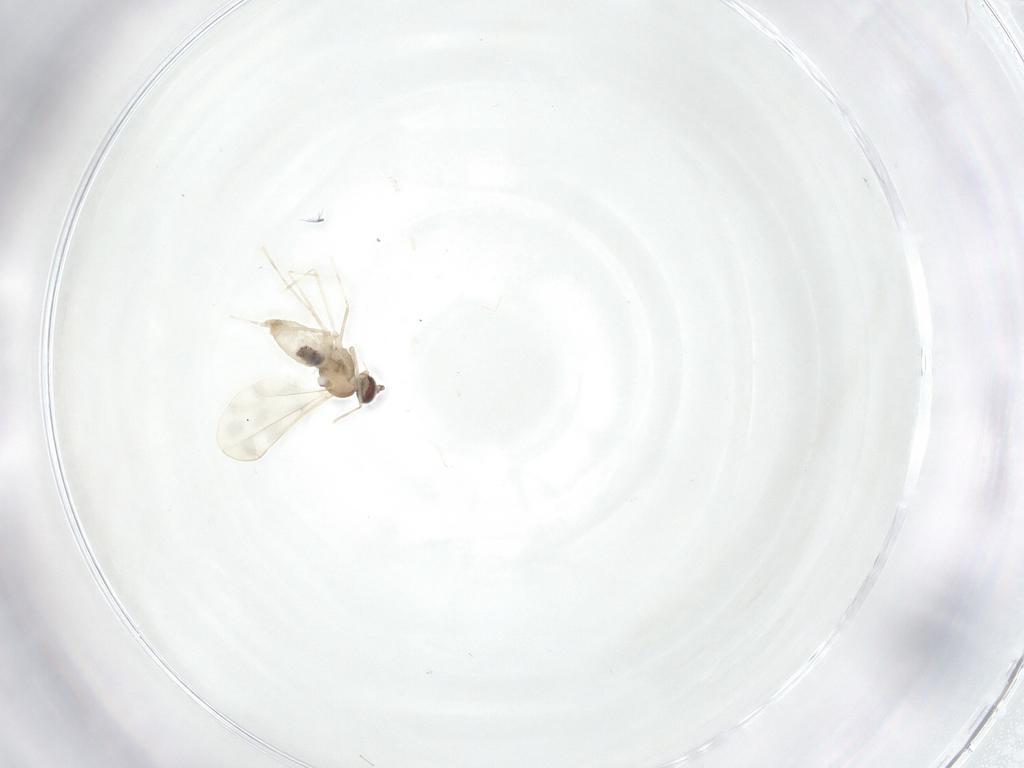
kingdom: Animalia
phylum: Arthropoda
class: Insecta
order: Diptera
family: Cecidomyiidae
